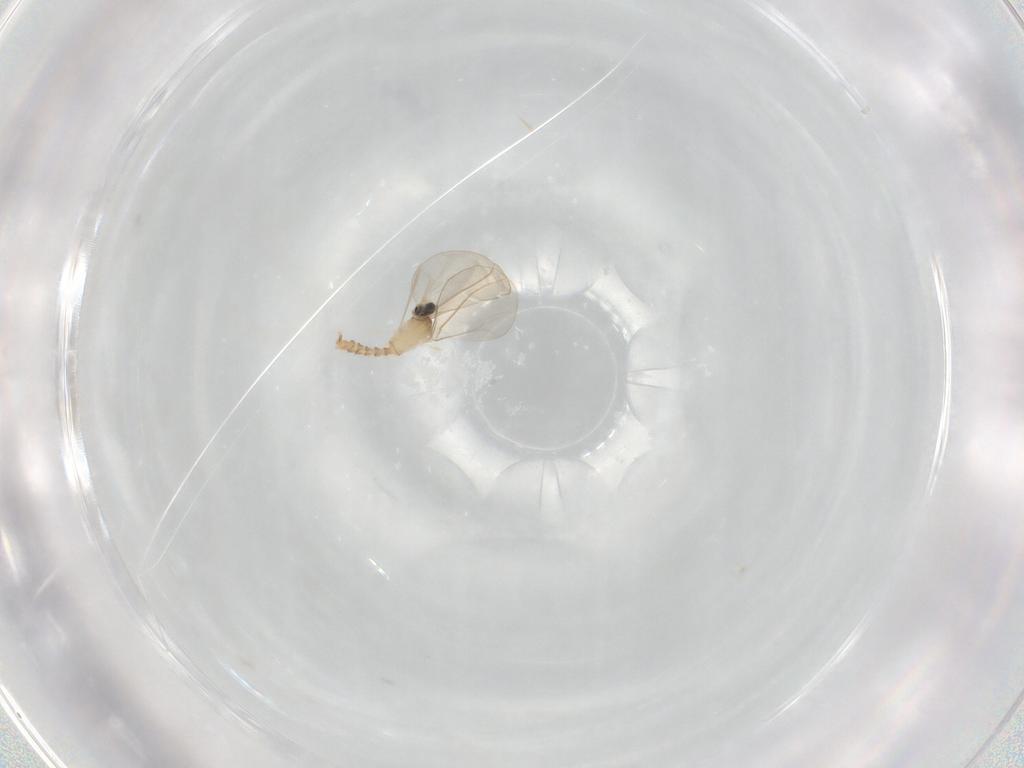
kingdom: Animalia
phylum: Arthropoda
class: Insecta
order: Diptera
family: Cecidomyiidae
